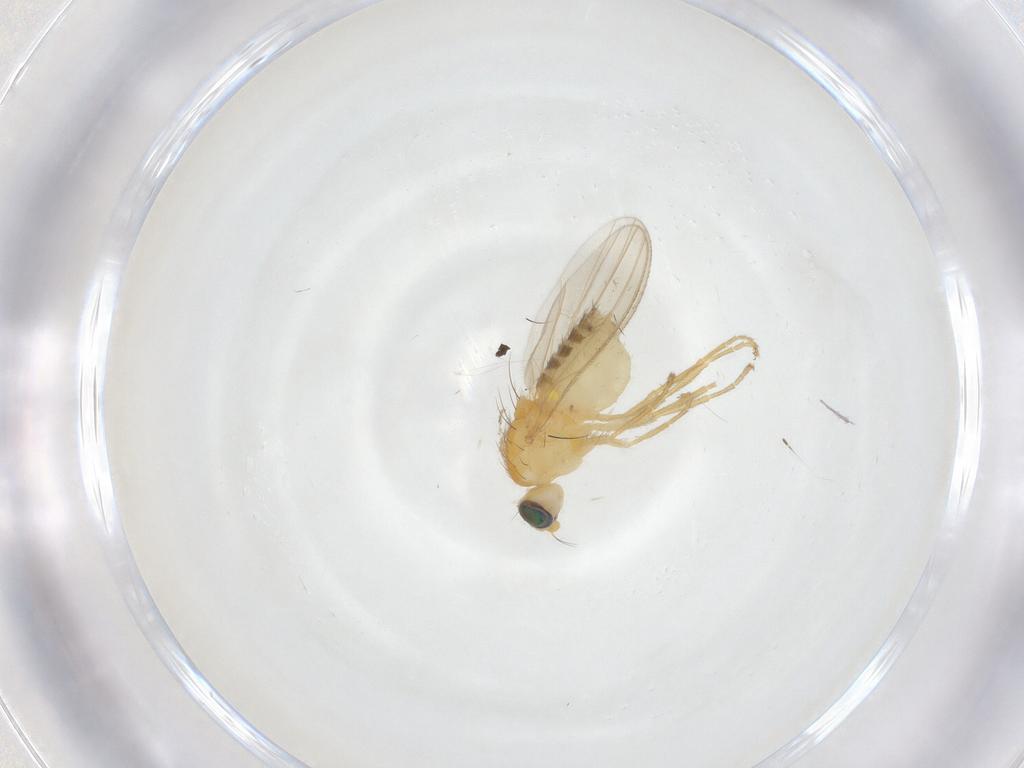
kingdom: Animalia
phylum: Arthropoda
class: Insecta
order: Diptera
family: Chyromyidae
